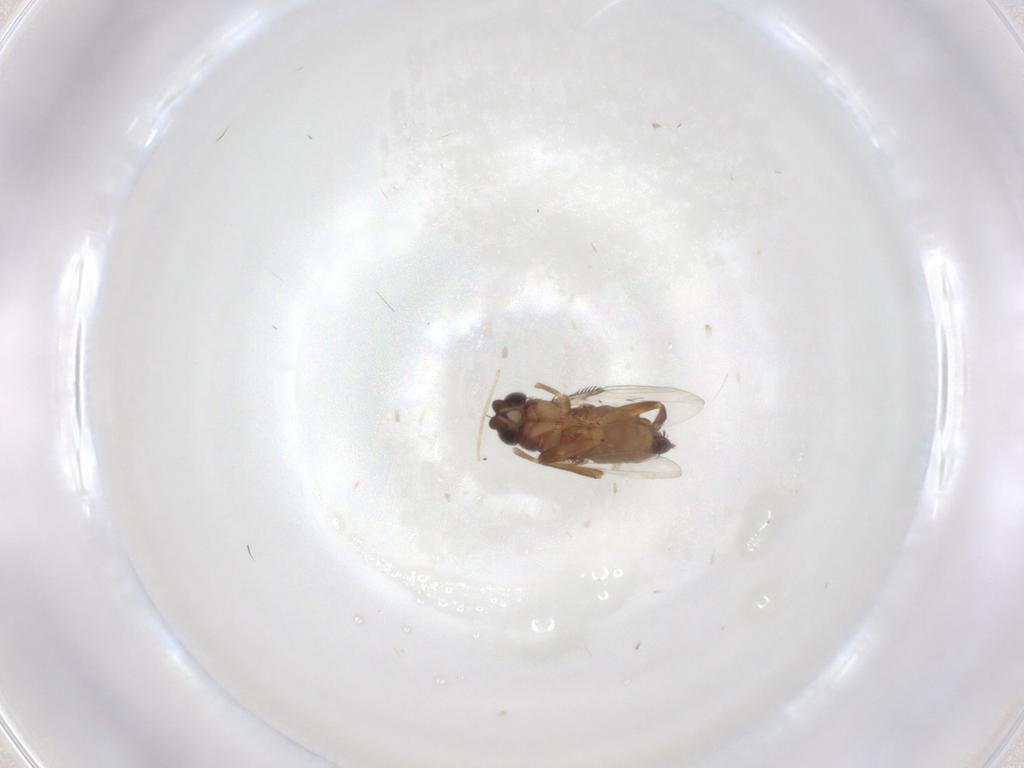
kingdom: Animalia
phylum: Arthropoda
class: Insecta
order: Diptera
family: Phoridae
